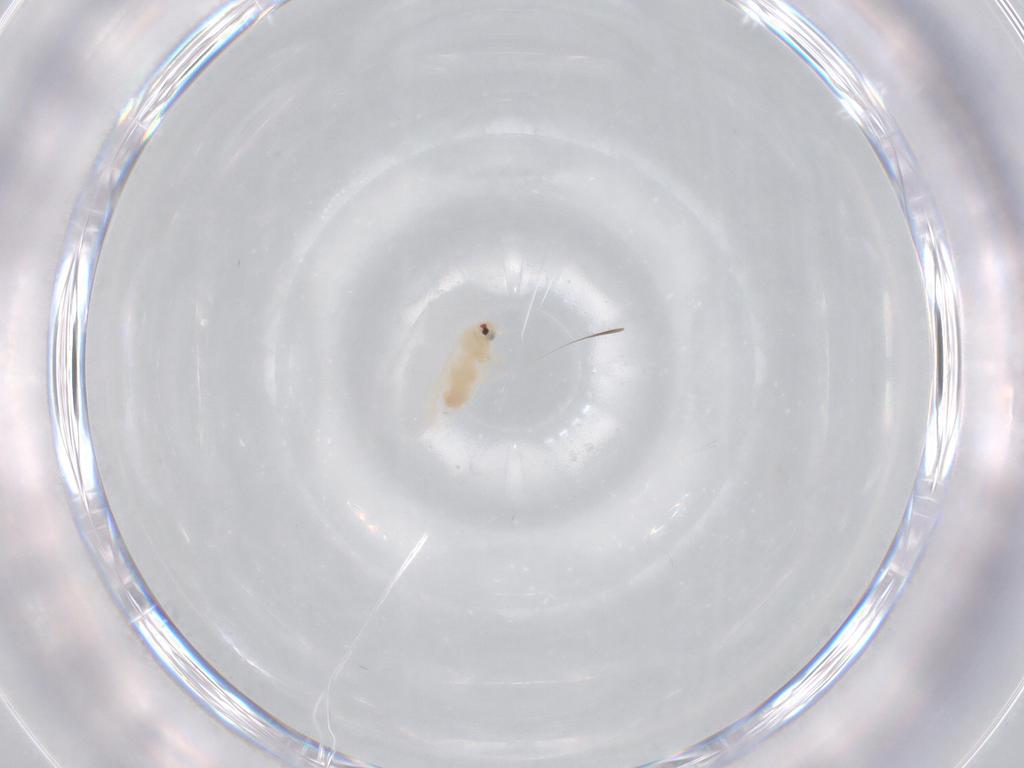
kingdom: Animalia
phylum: Arthropoda
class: Insecta
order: Hemiptera
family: Aleyrodidae
